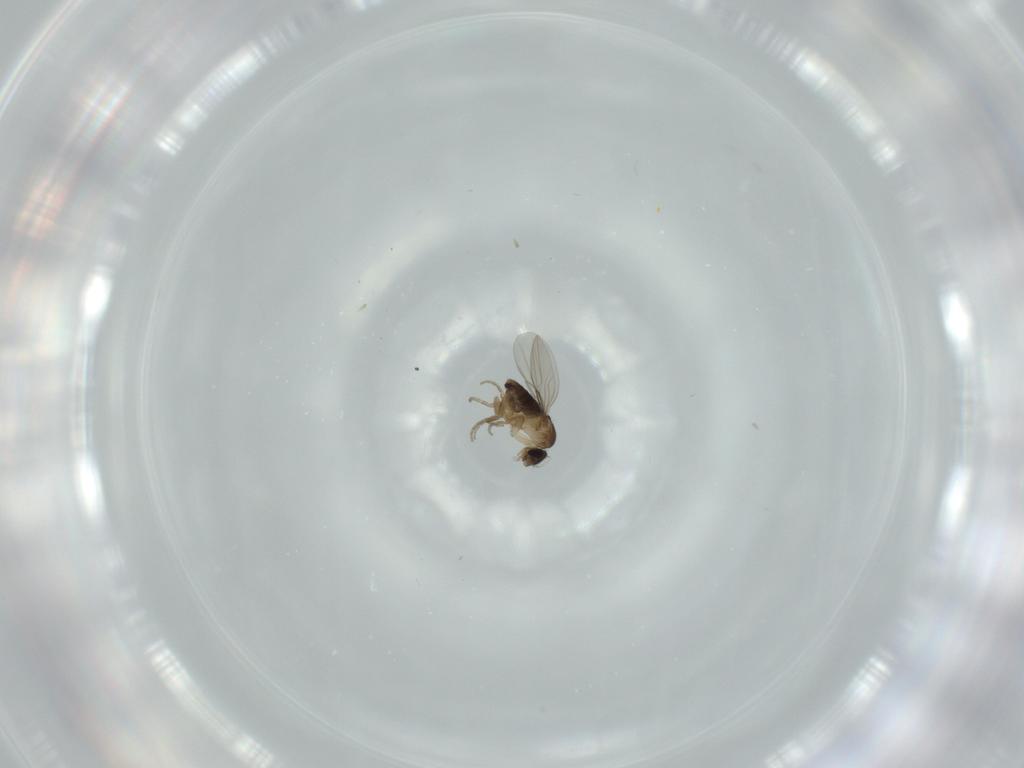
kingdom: Animalia
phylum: Arthropoda
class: Insecta
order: Diptera
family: Phoridae
